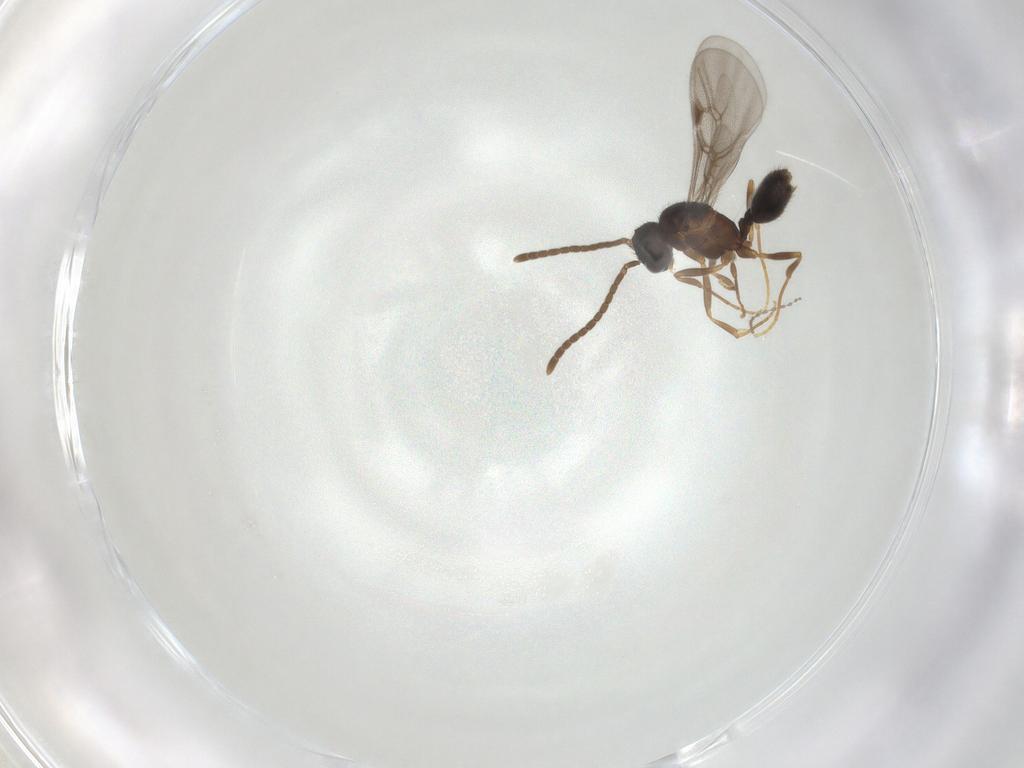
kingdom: Animalia
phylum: Arthropoda
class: Insecta
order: Hymenoptera
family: Formicidae
